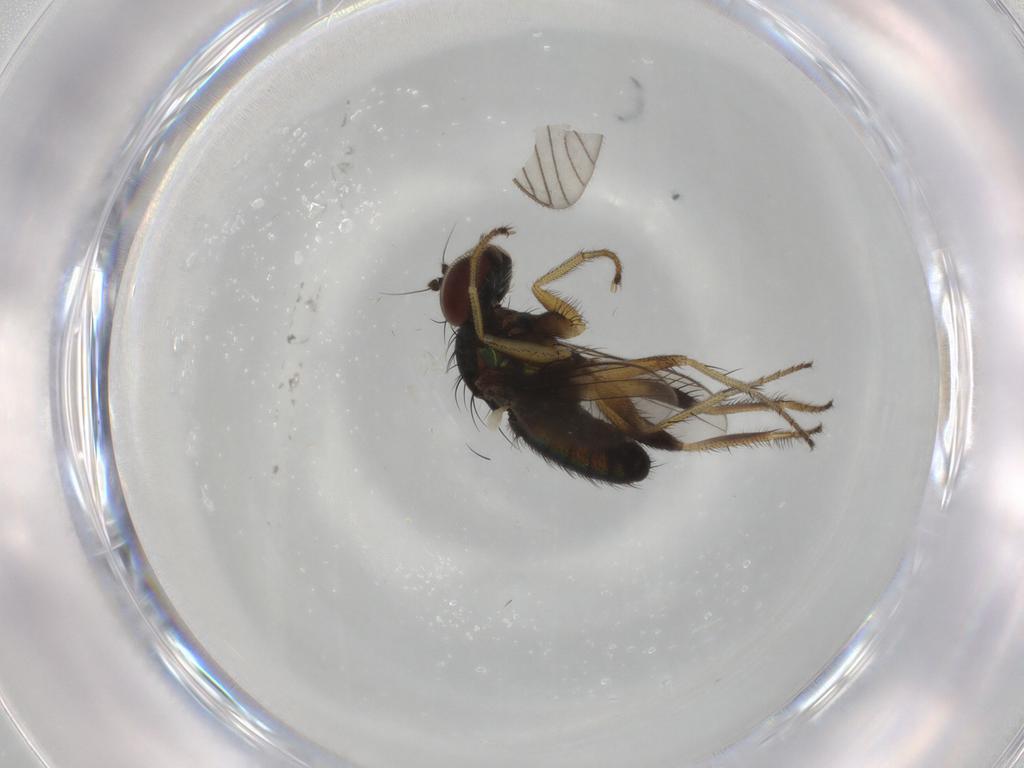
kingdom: Animalia
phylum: Arthropoda
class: Insecta
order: Diptera
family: Dolichopodidae
